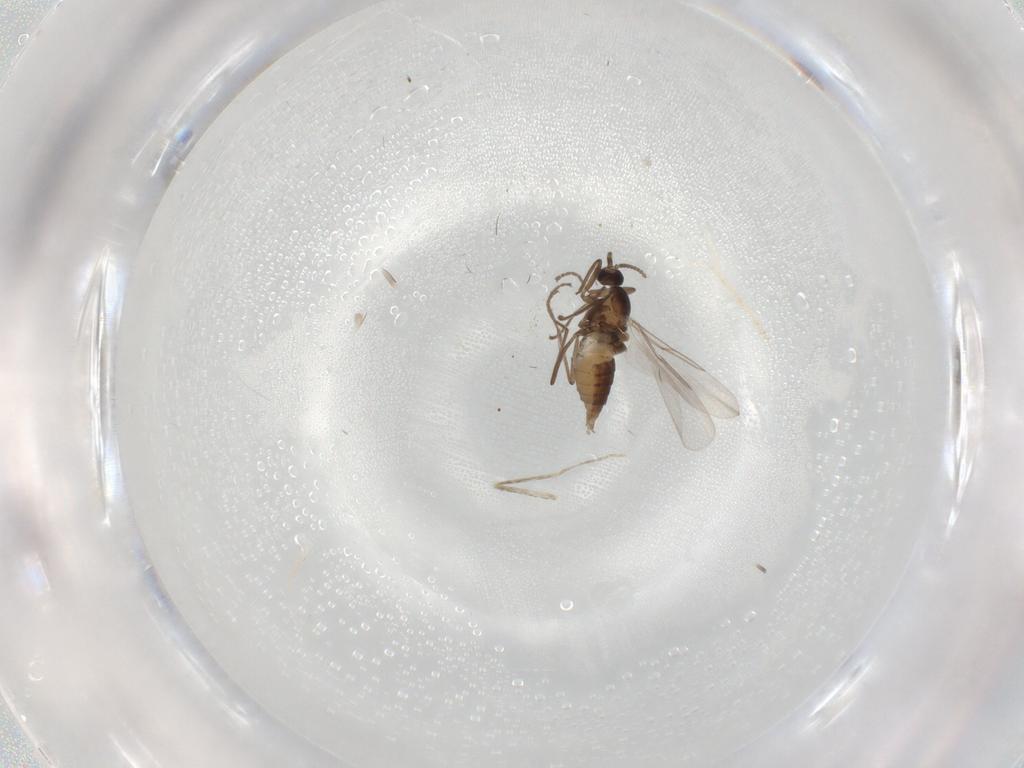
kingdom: Animalia
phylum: Arthropoda
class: Insecta
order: Diptera
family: Cecidomyiidae
